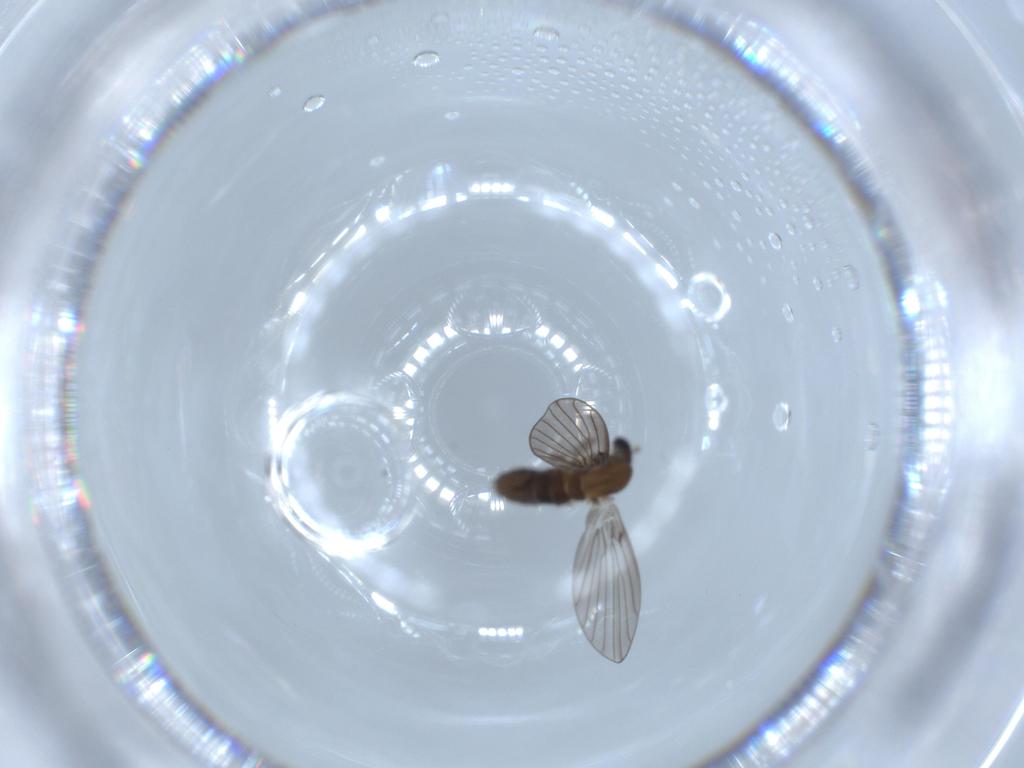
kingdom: Animalia
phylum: Arthropoda
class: Insecta
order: Diptera
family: Psychodidae
